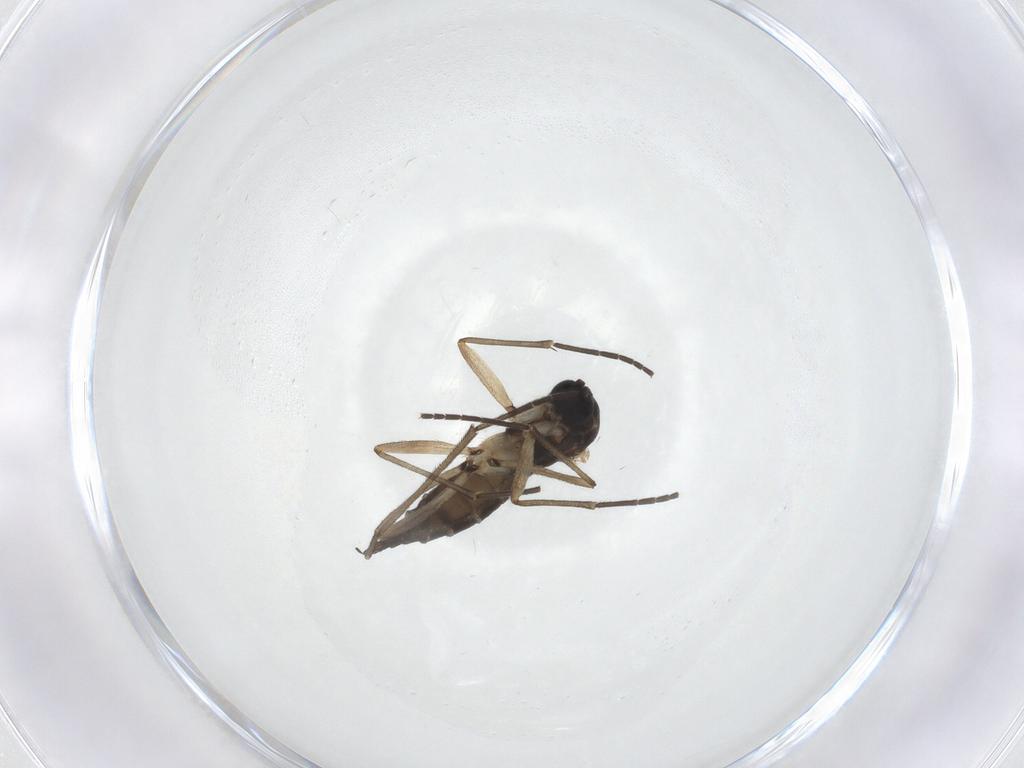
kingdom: Animalia
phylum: Arthropoda
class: Insecta
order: Diptera
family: Sciaridae
